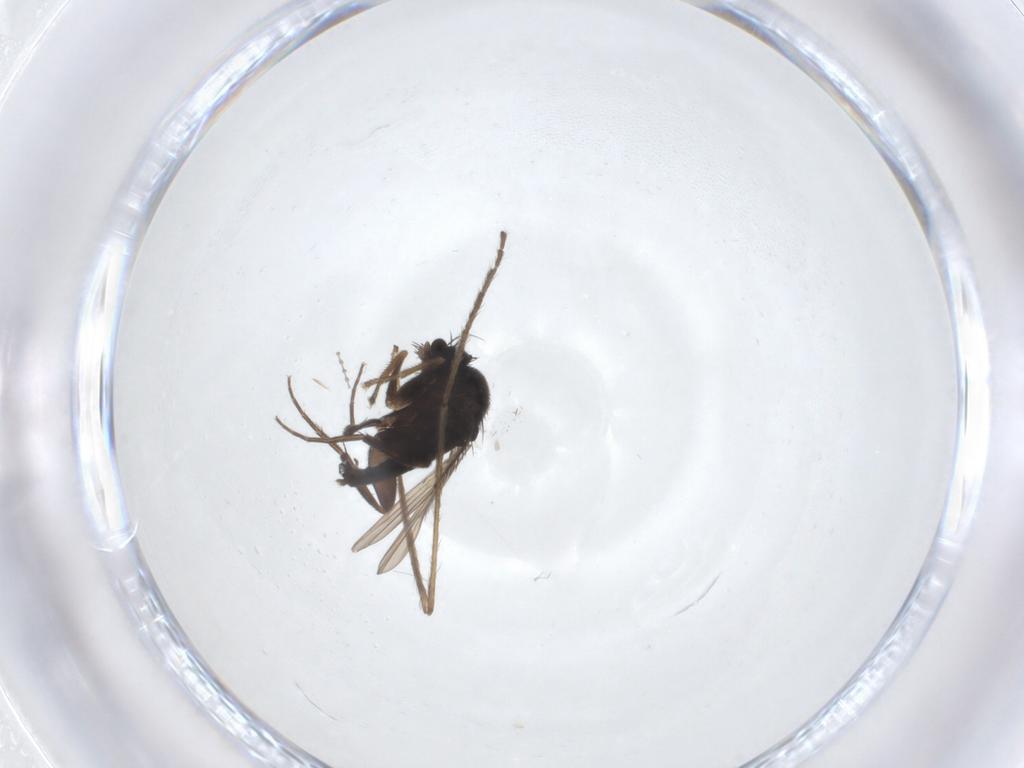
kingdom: Animalia
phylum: Arthropoda
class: Insecta
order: Diptera
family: Phoridae
